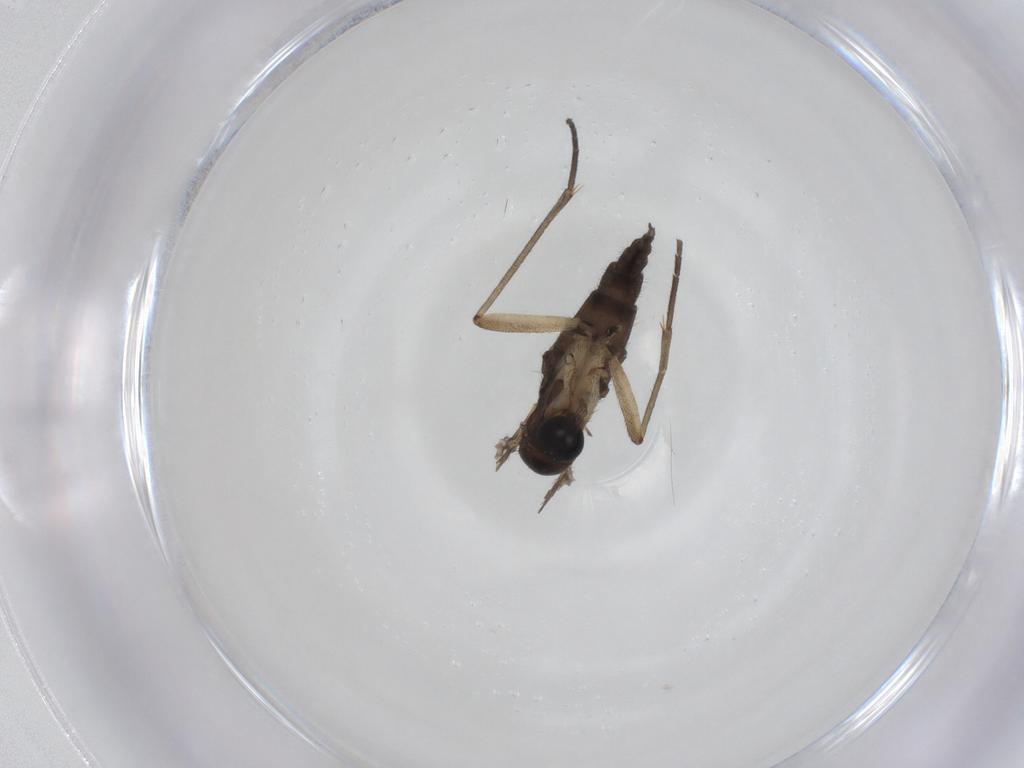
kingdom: Animalia
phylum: Arthropoda
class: Insecta
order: Diptera
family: Sciaridae
